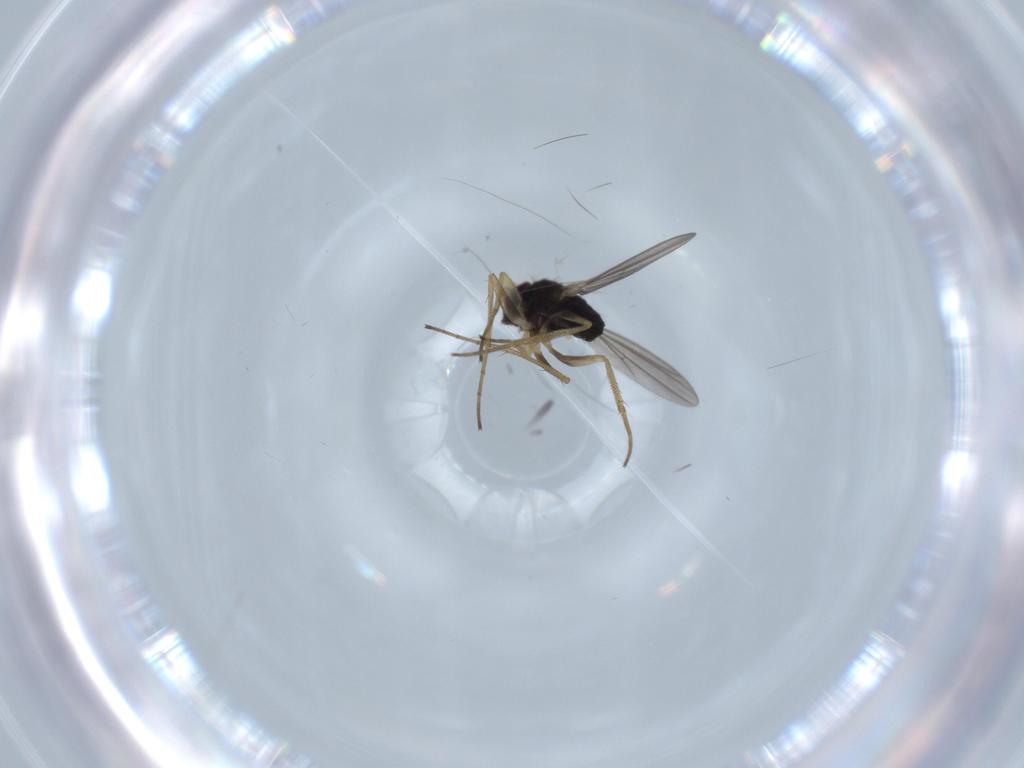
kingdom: Animalia
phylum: Arthropoda
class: Insecta
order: Diptera
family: Dolichopodidae
